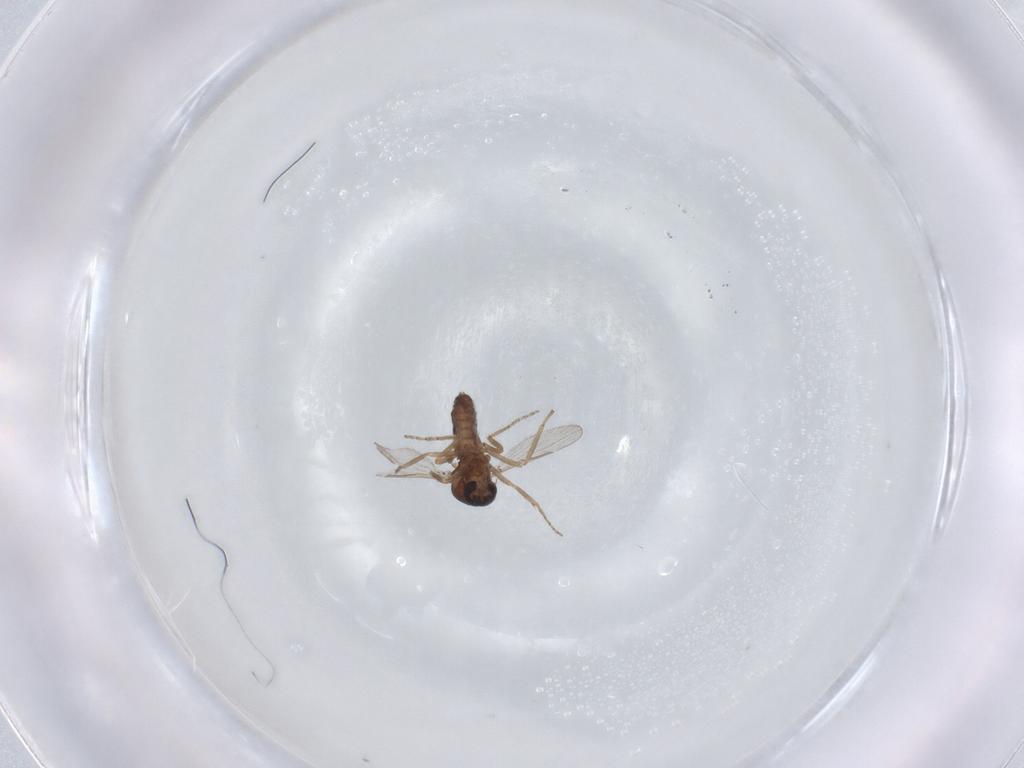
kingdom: Animalia
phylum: Arthropoda
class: Insecta
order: Diptera
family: Ceratopogonidae
